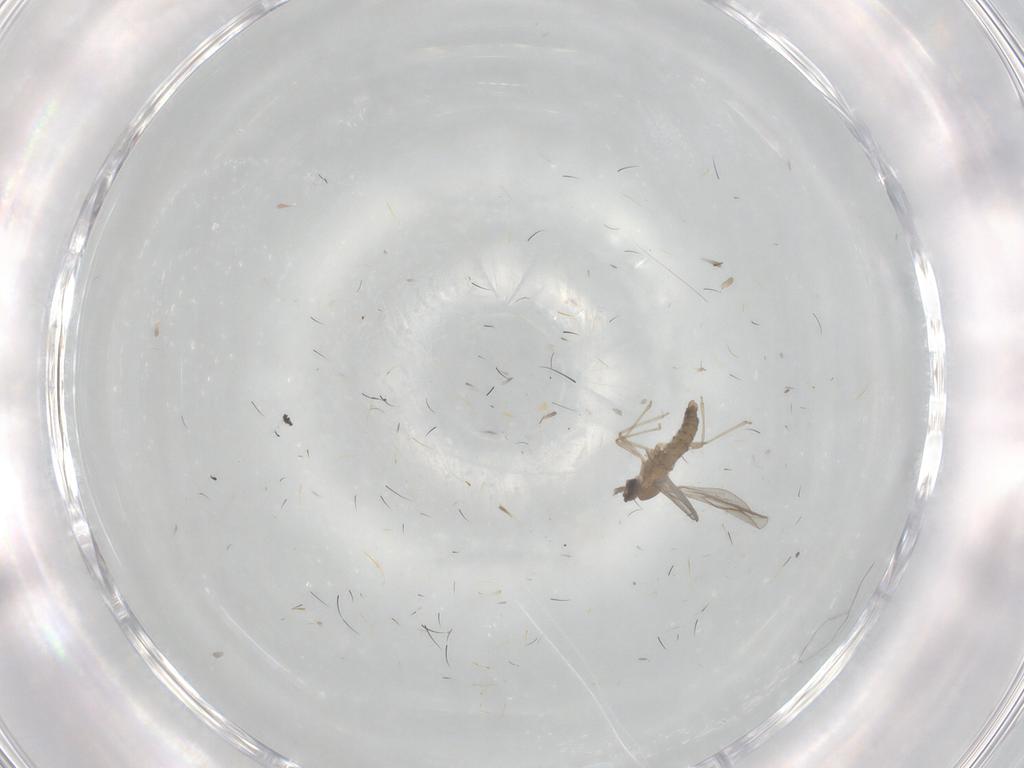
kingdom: Animalia
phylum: Arthropoda
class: Insecta
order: Diptera
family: Cecidomyiidae
